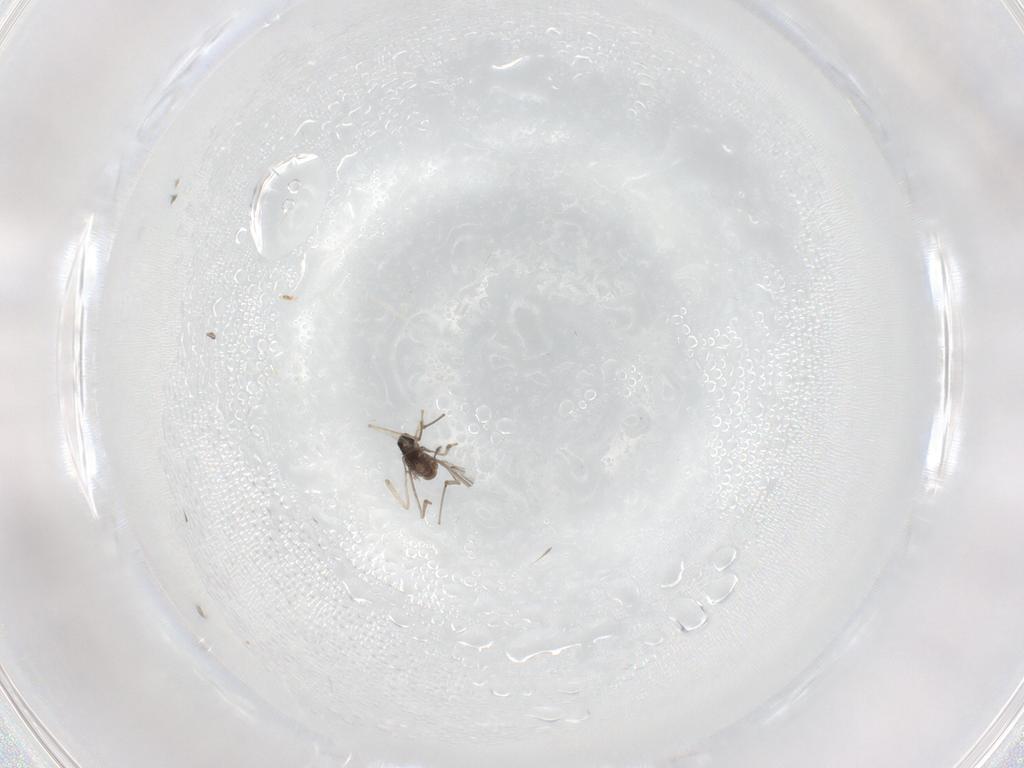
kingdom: Animalia
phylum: Arthropoda
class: Insecta
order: Diptera
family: Cecidomyiidae
